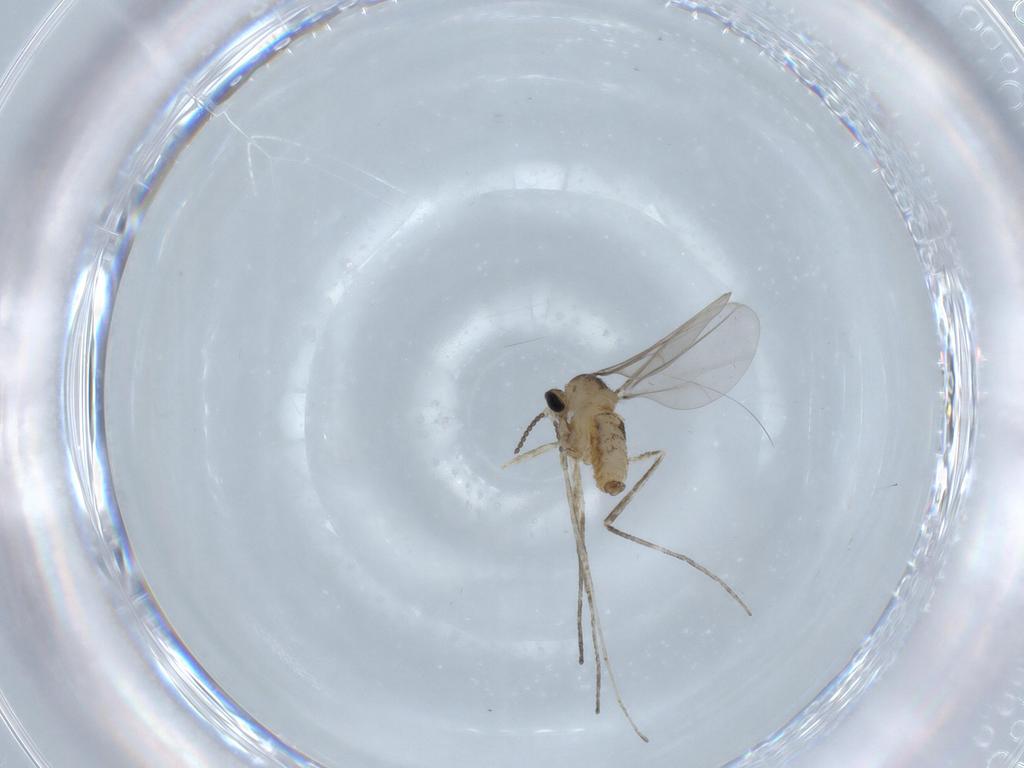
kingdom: Animalia
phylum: Arthropoda
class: Insecta
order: Diptera
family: Cecidomyiidae
